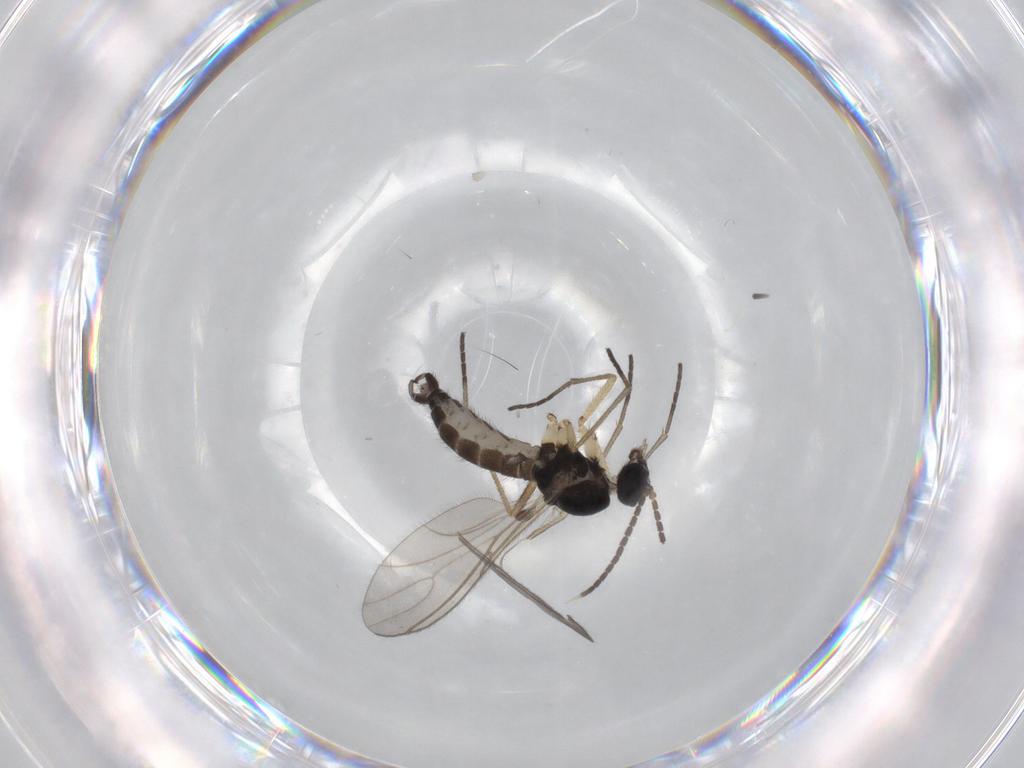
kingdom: Animalia
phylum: Arthropoda
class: Insecta
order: Diptera
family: Sciaridae
